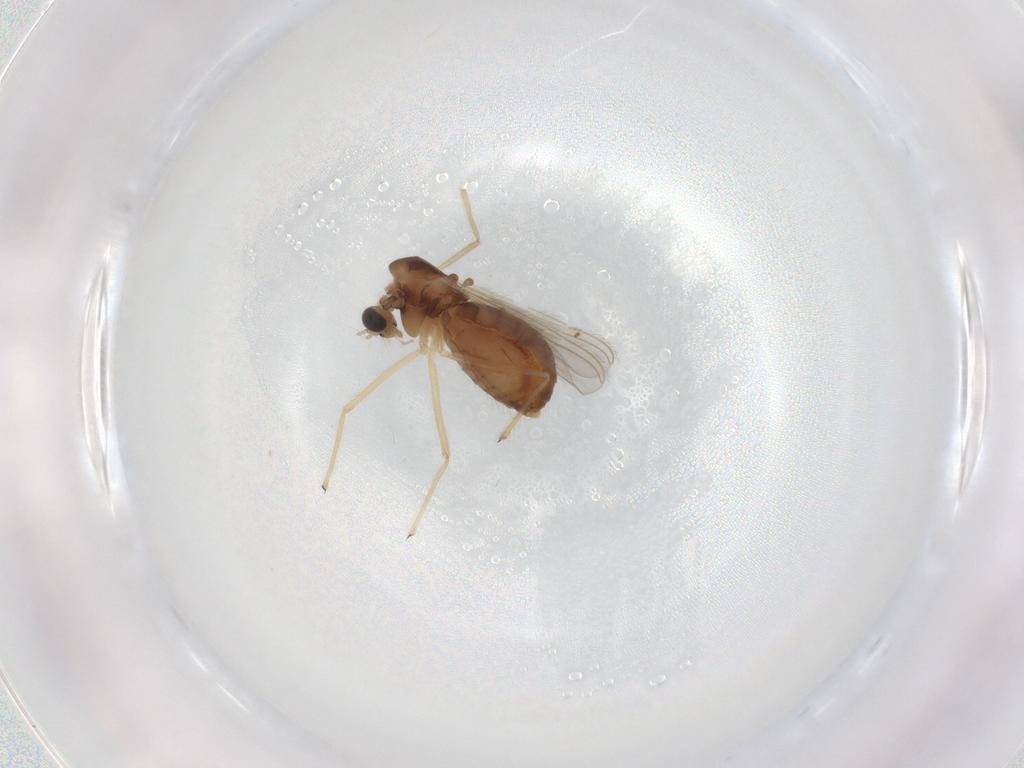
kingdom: Animalia
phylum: Arthropoda
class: Insecta
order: Diptera
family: Chironomidae
